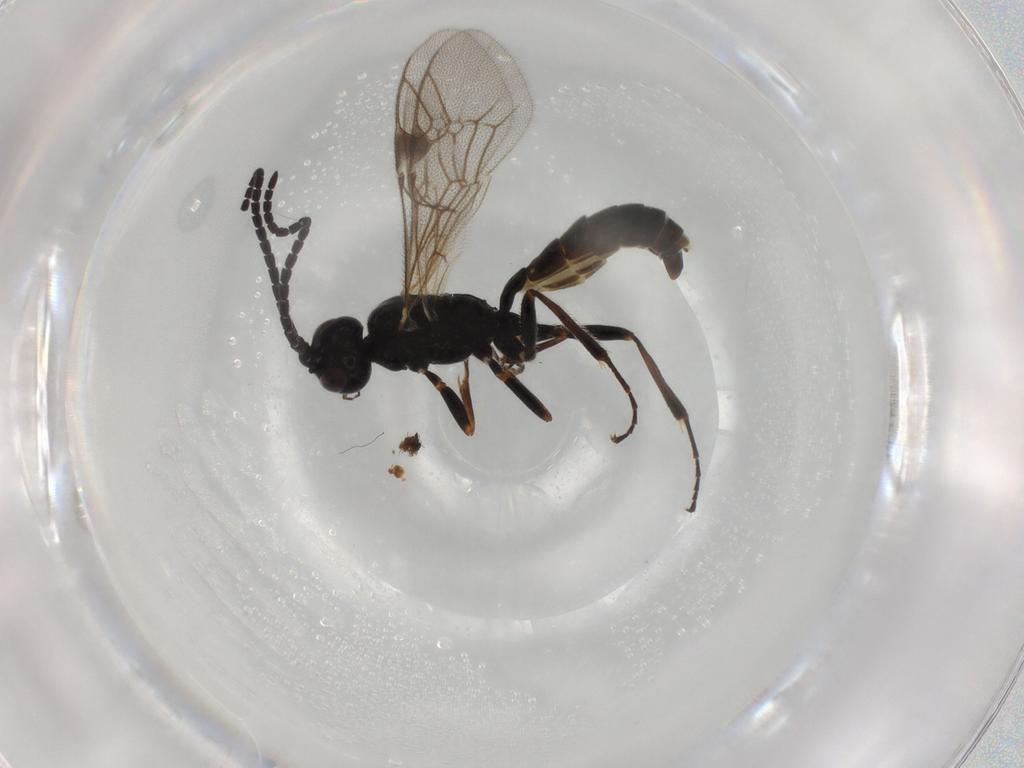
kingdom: Animalia
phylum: Arthropoda
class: Insecta
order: Hymenoptera
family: Ichneumonidae
